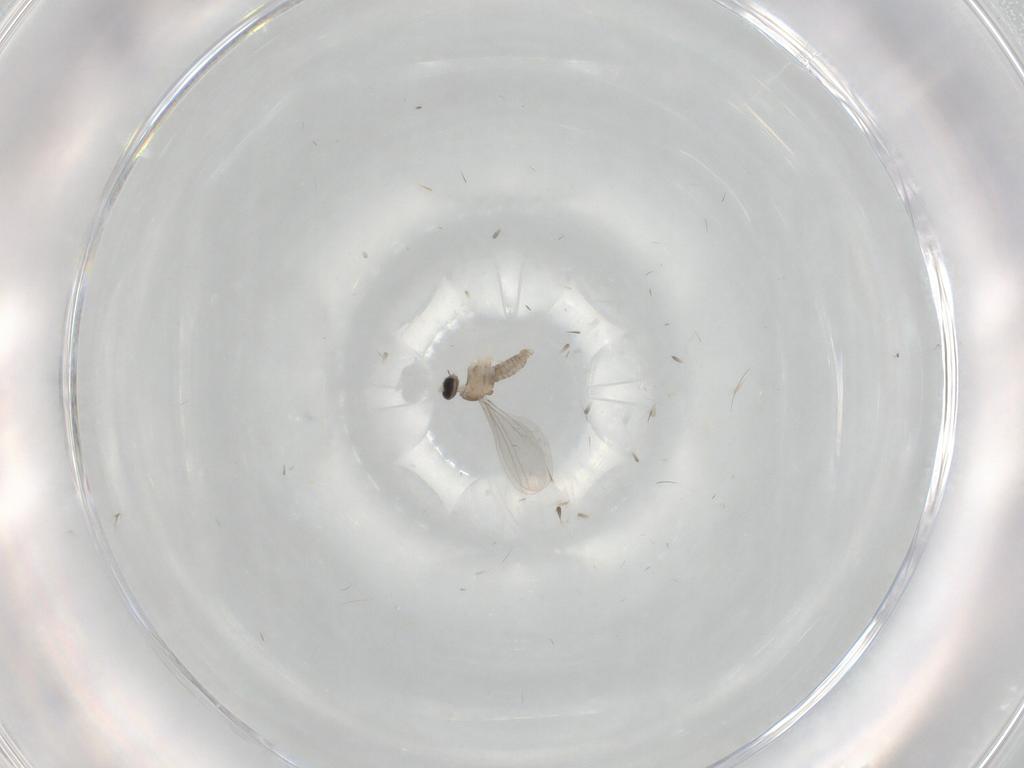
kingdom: Animalia
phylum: Arthropoda
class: Insecta
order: Diptera
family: Cecidomyiidae
